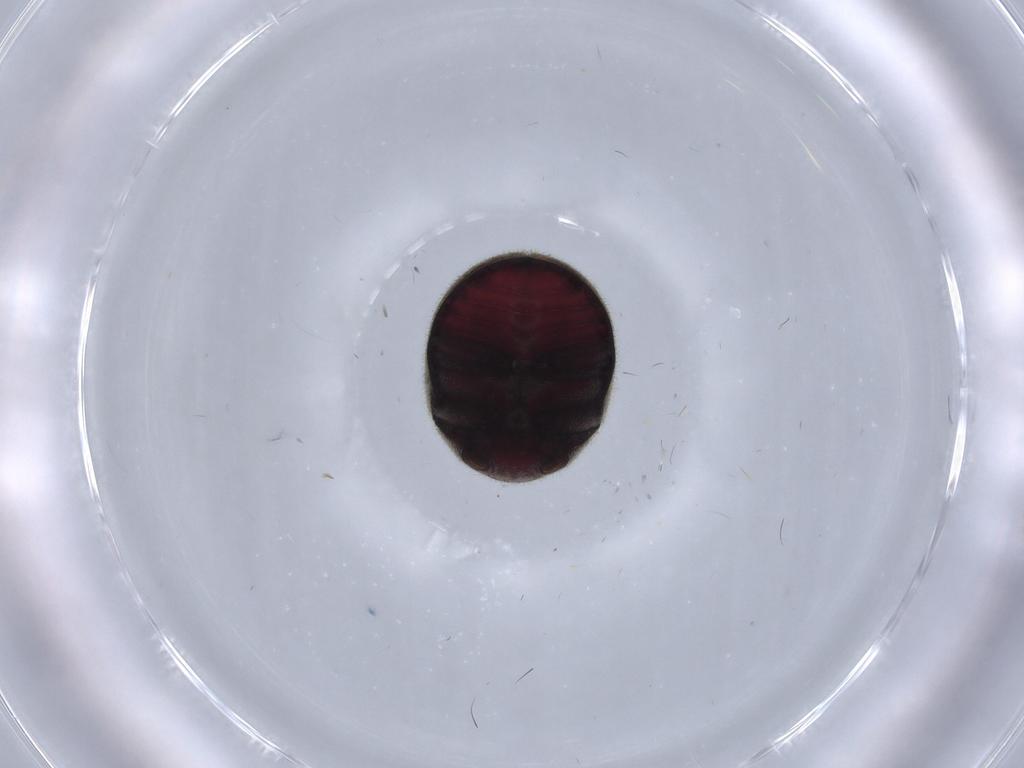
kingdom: Animalia
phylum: Arthropoda
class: Insecta
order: Coleoptera
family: Ptinidae
